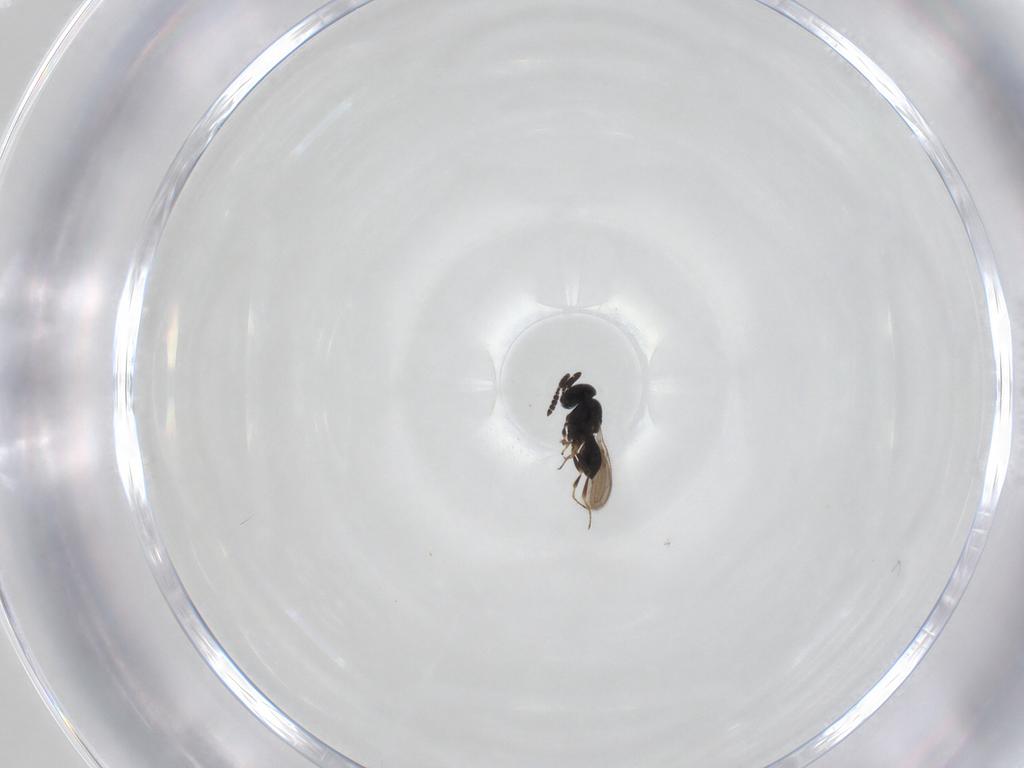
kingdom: Animalia
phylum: Arthropoda
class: Insecta
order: Hymenoptera
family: Scelionidae
